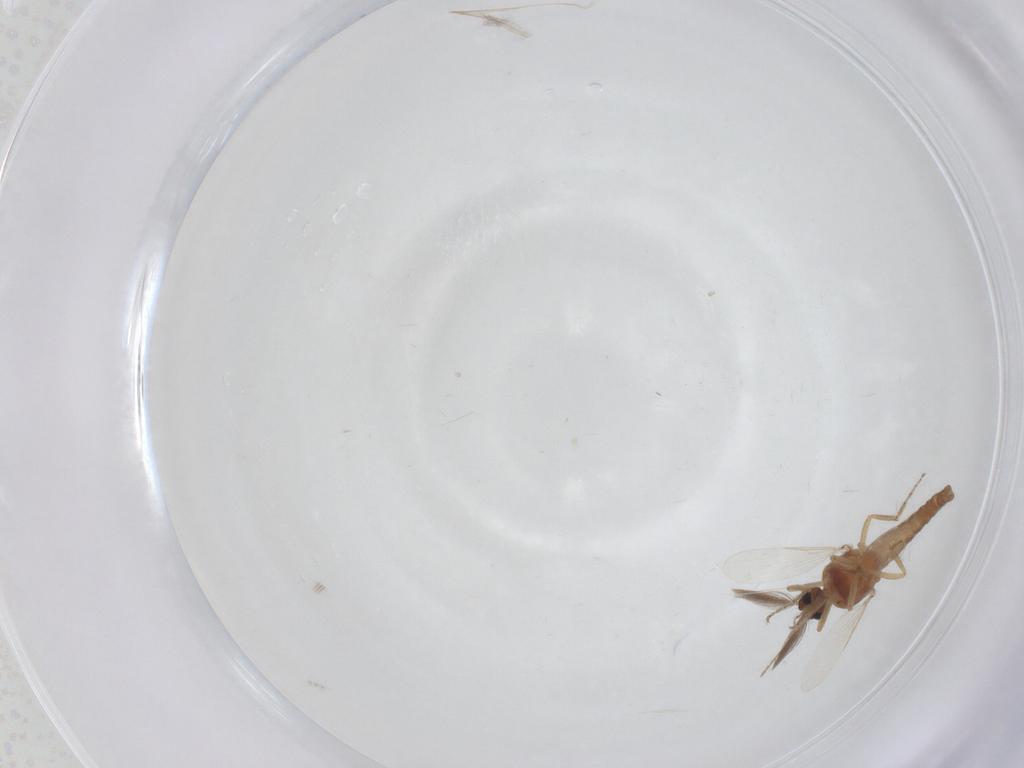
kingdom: Animalia
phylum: Arthropoda
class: Insecta
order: Diptera
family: Ceratopogonidae
